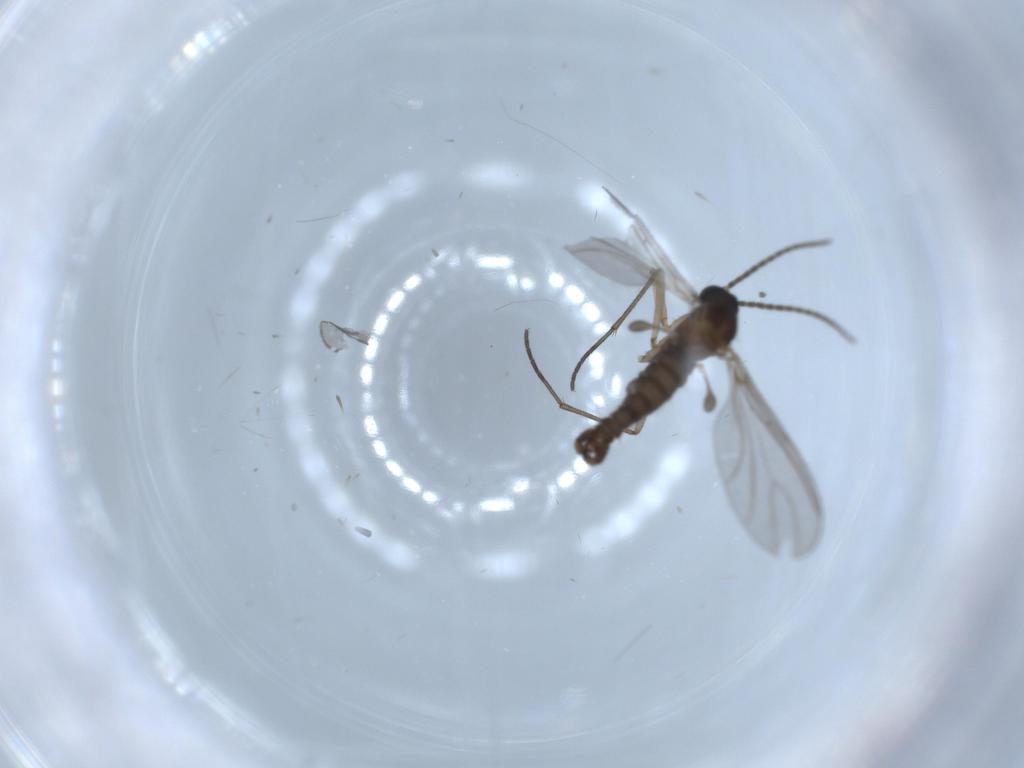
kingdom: Animalia
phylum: Arthropoda
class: Insecta
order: Diptera
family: Sciaridae
